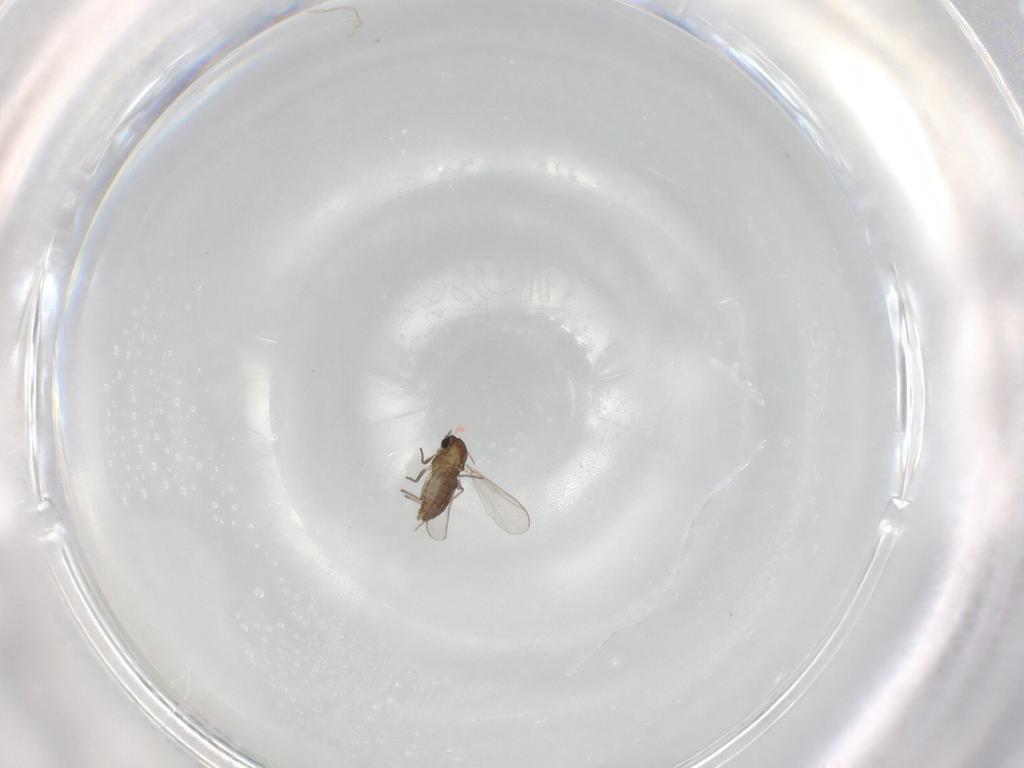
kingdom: Animalia
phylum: Arthropoda
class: Insecta
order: Diptera
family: Chironomidae
